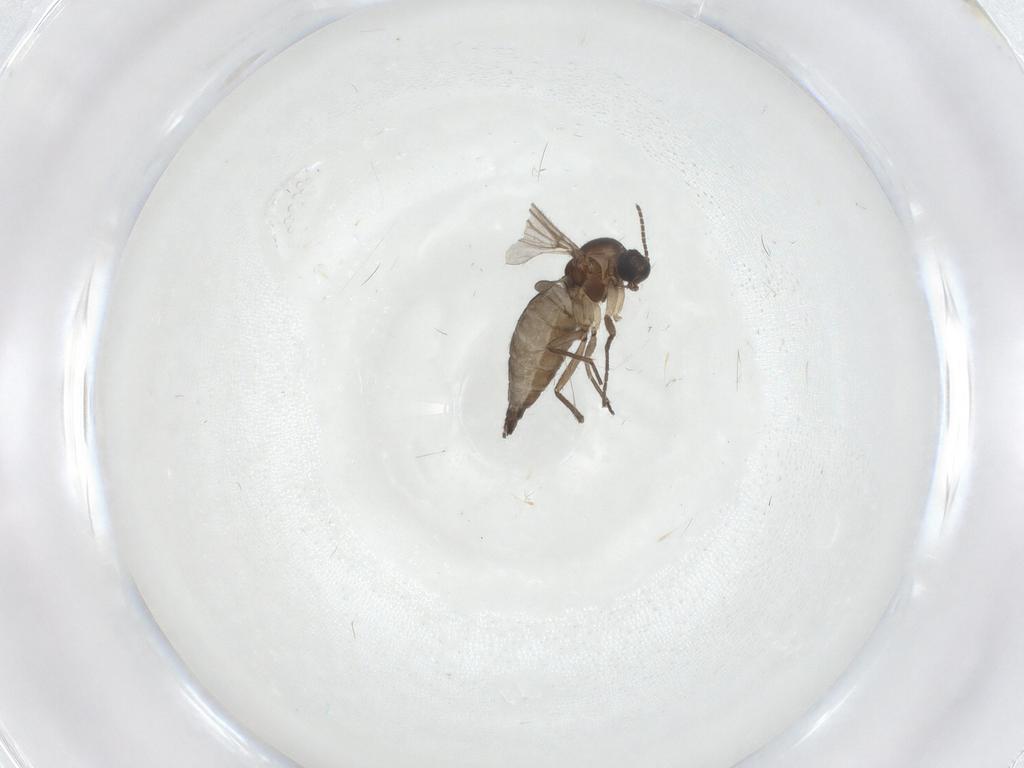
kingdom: Animalia
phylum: Arthropoda
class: Insecta
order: Diptera
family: Sciaridae
